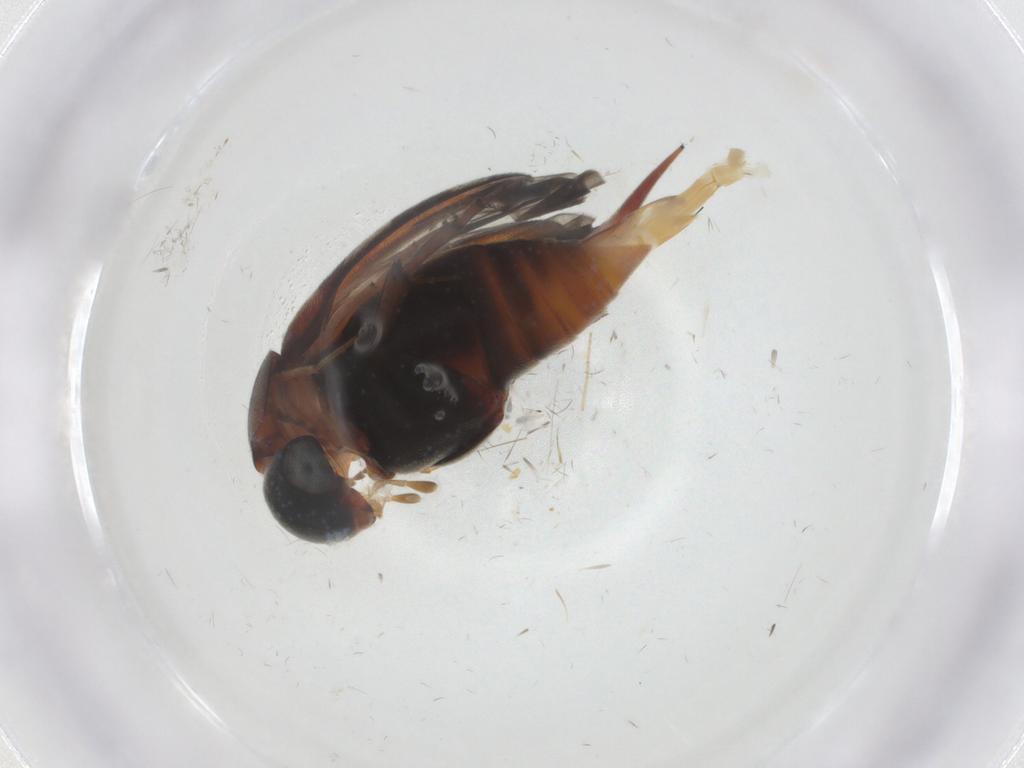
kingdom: Animalia
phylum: Arthropoda
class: Insecta
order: Coleoptera
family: Mordellidae
